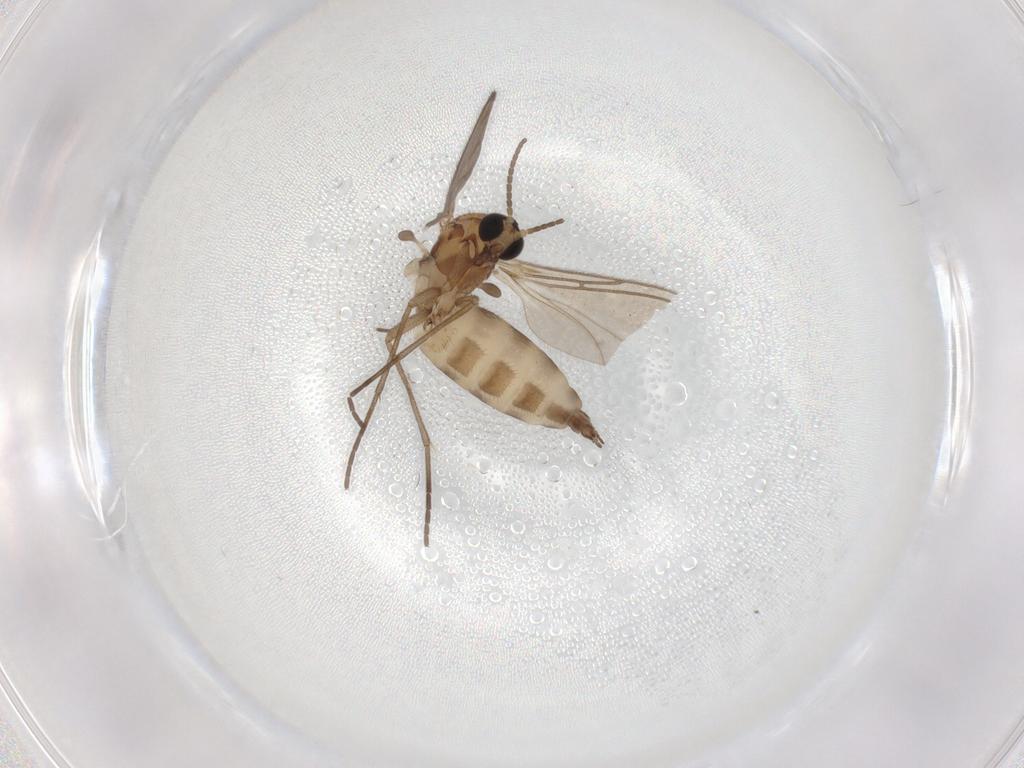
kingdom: Animalia
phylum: Arthropoda
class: Insecta
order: Diptera
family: Sciaridae
